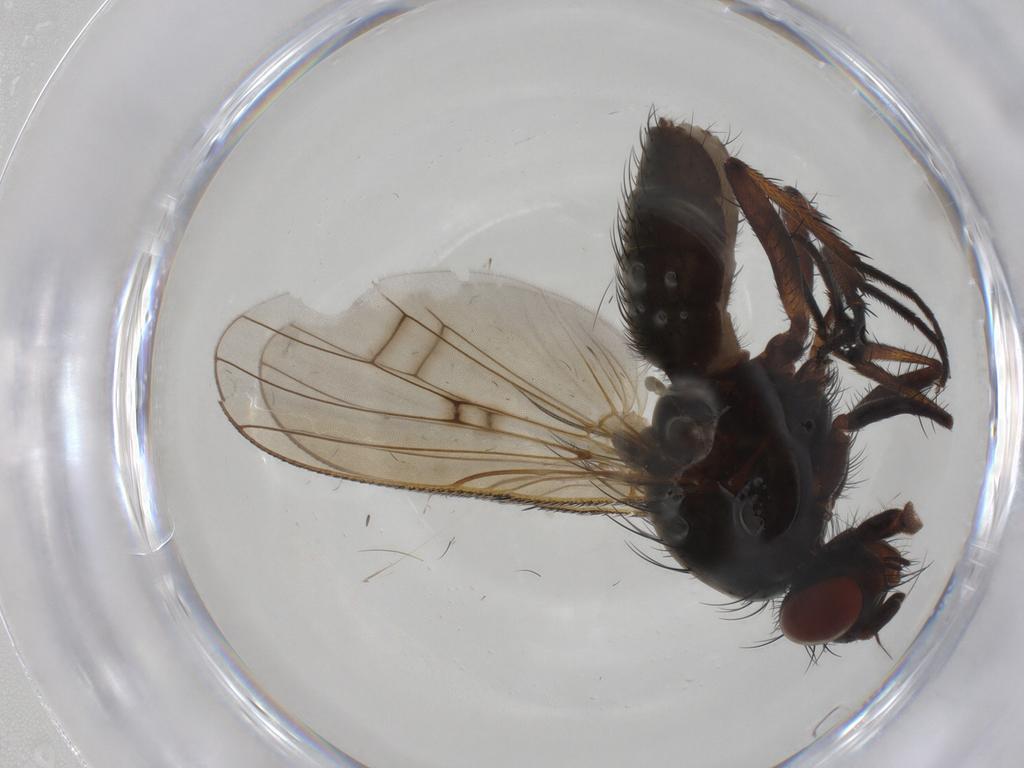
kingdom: Animalia
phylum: Arthropoda
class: Insecta
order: Diptera
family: Anthomyiidae
